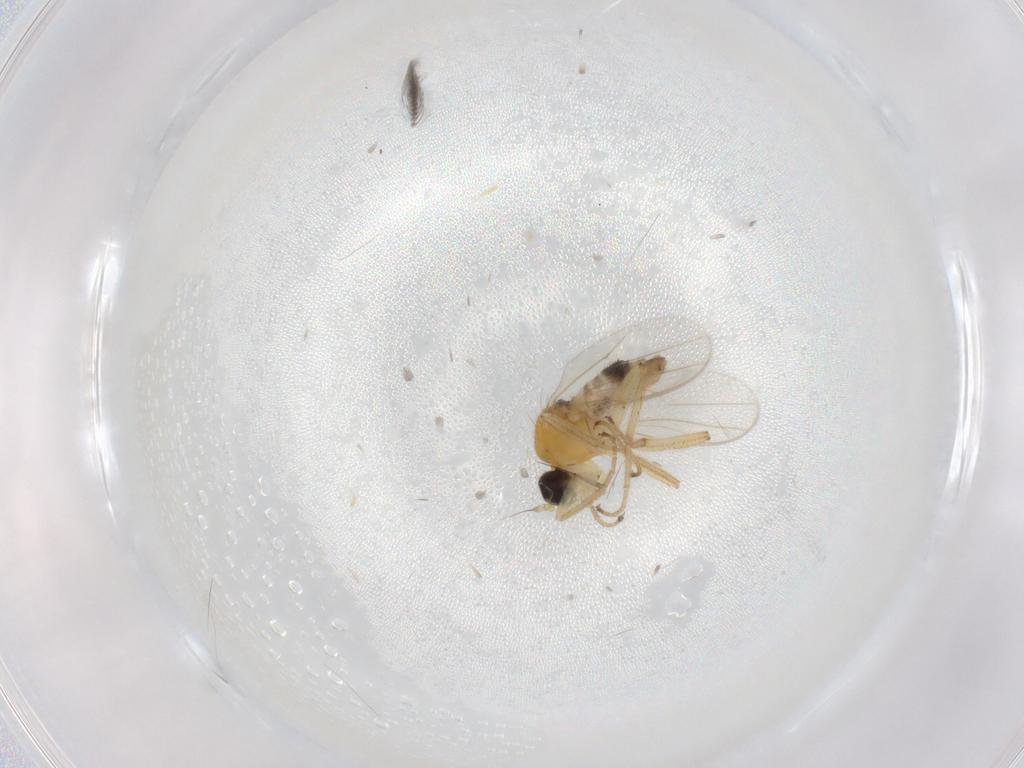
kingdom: Animalia
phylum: Arthropoda
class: Insecta
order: Diptera
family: Hybotidae
